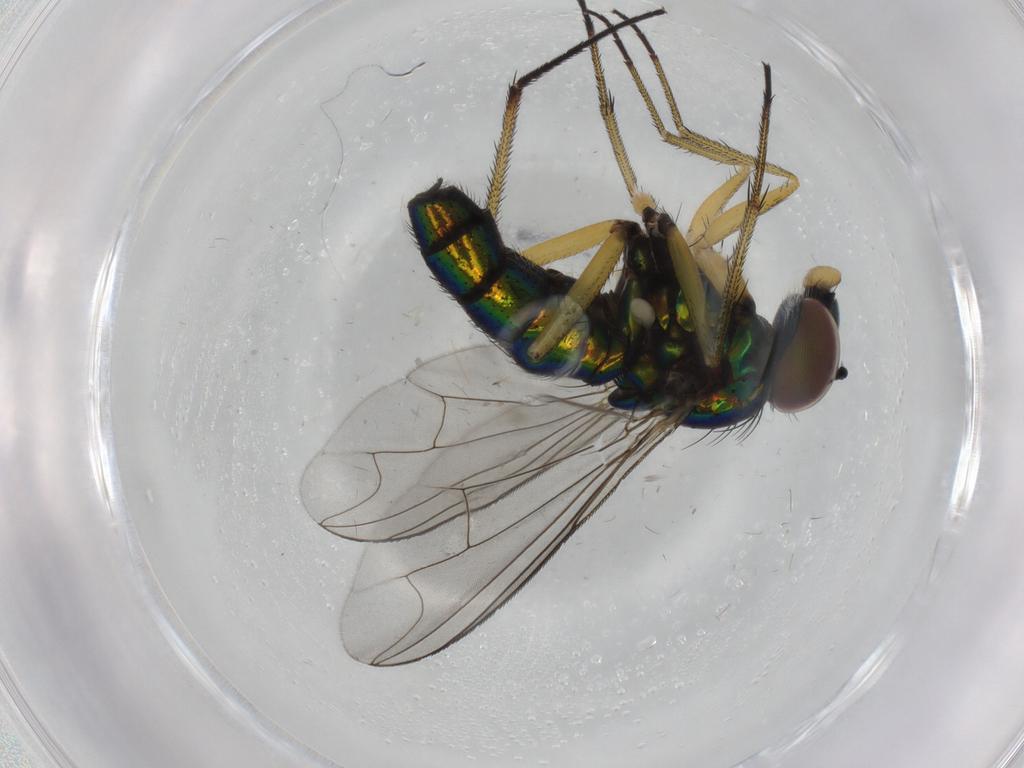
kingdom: Animalia
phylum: Arthropoda
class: Insecta
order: Diptera
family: Dolichopodidae
